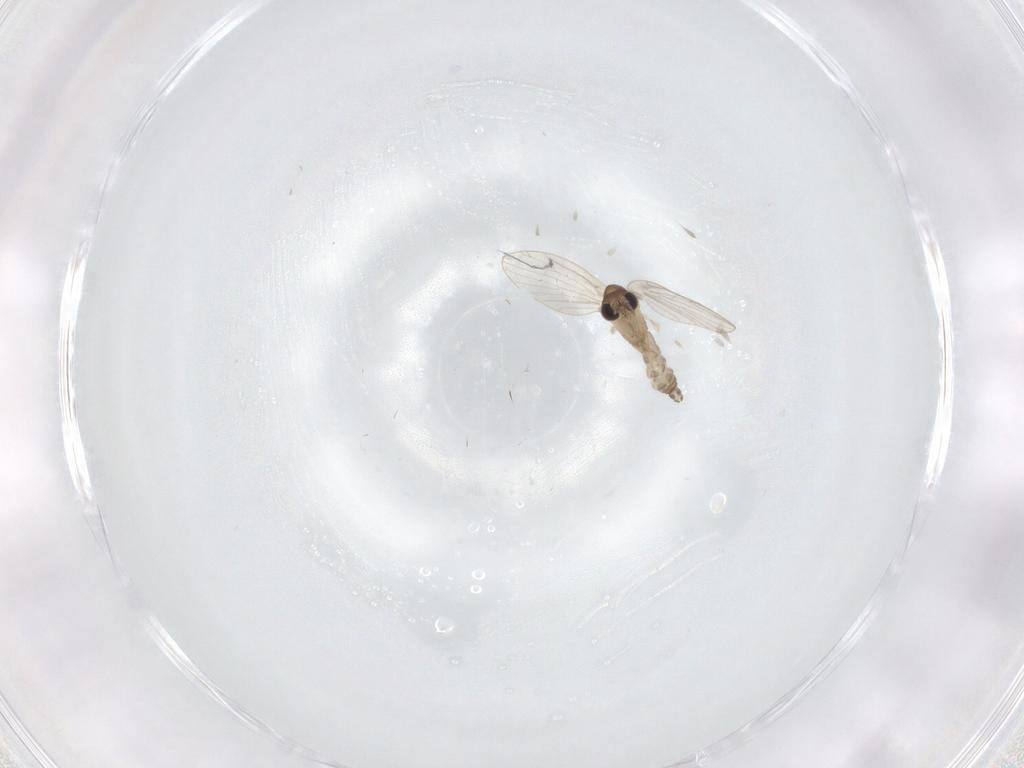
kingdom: Animalia
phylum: Arthropoda
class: Insecta
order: Diptera
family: Psychodidae
